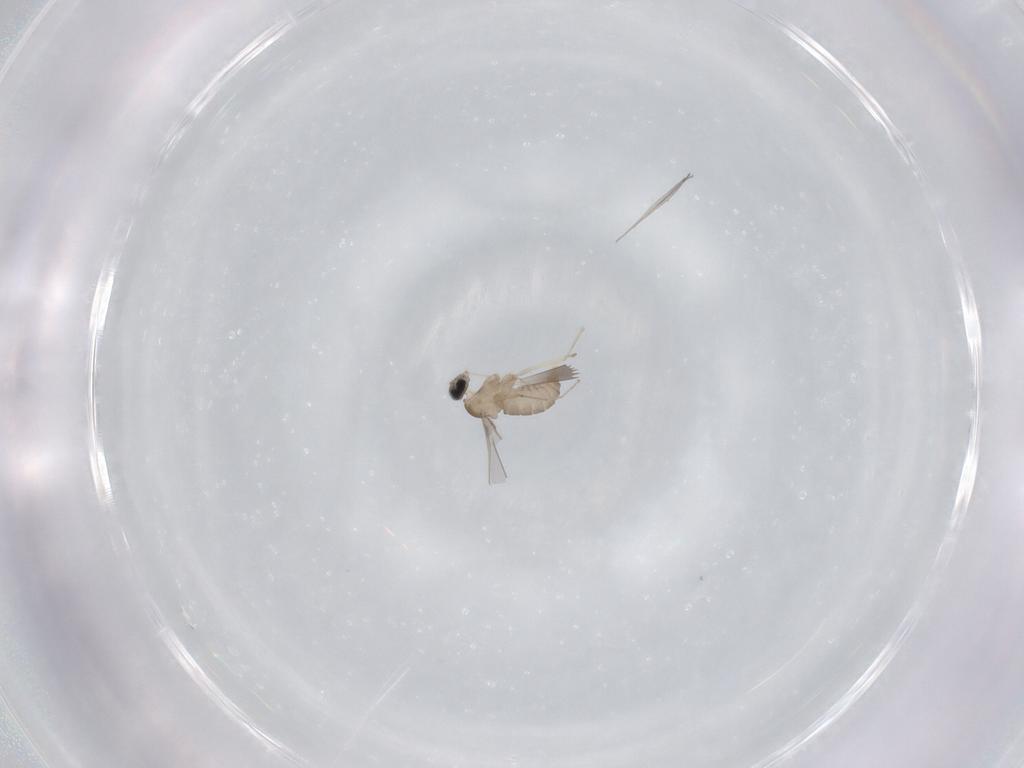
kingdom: Animalia
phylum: Arthropoda
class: Insecta
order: Diptera
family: Cecidomyiidae
